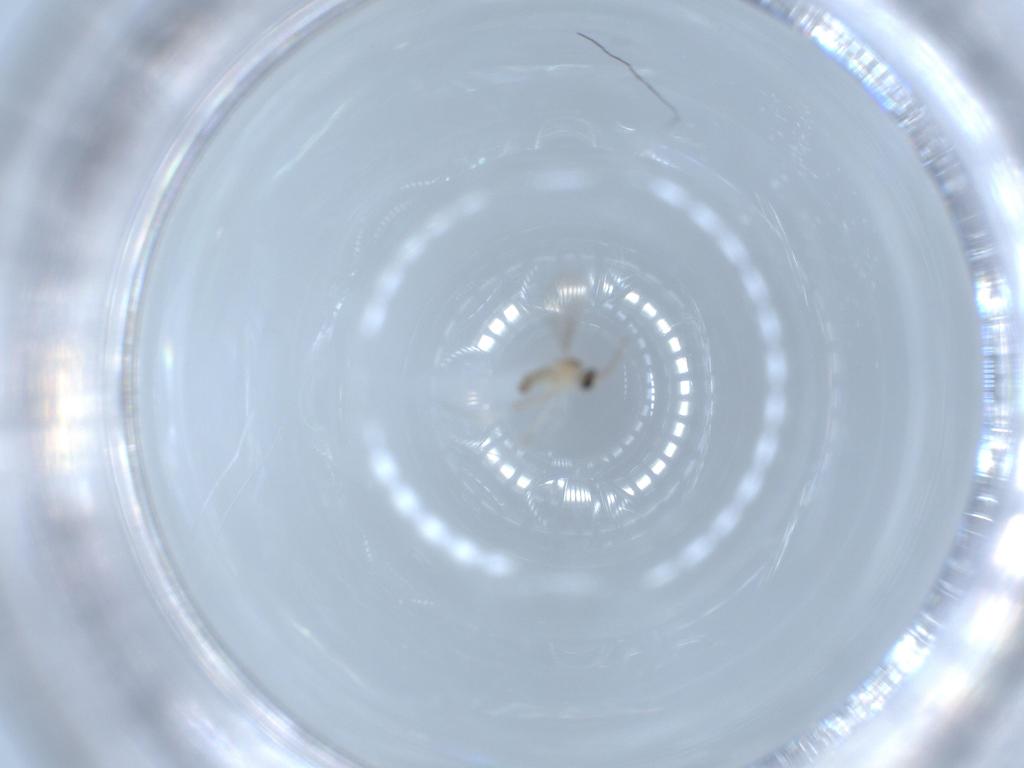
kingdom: Animalia
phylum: Arthropoda
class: Insecta
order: Diptera
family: Cecidomyiidae
